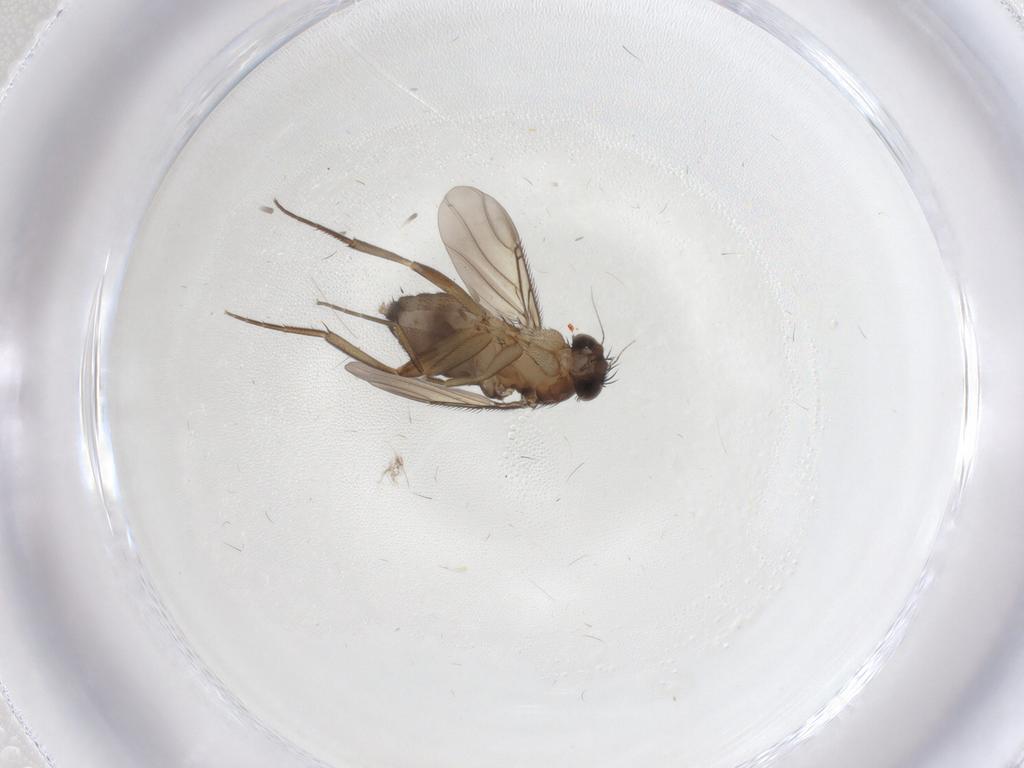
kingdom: Animalia
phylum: Arthropoda
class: Insecta
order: Diptera
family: Phoridae
